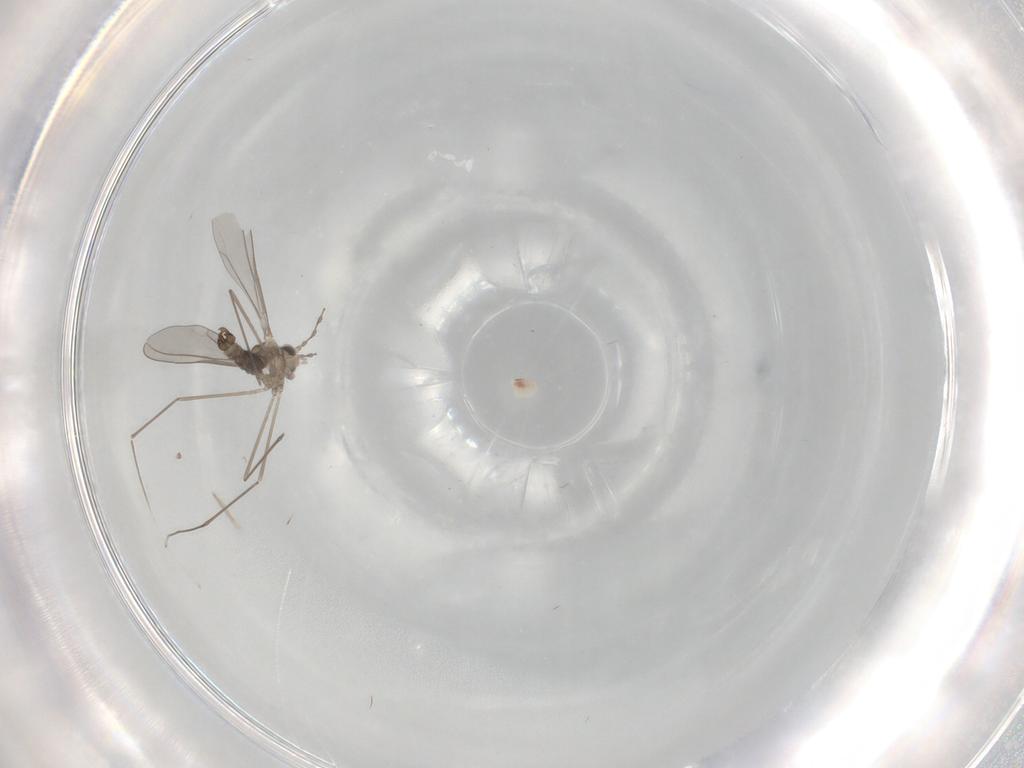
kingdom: Animalia
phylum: Arthropoda
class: Insecta
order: Diptera
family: Cecidomyiidae
